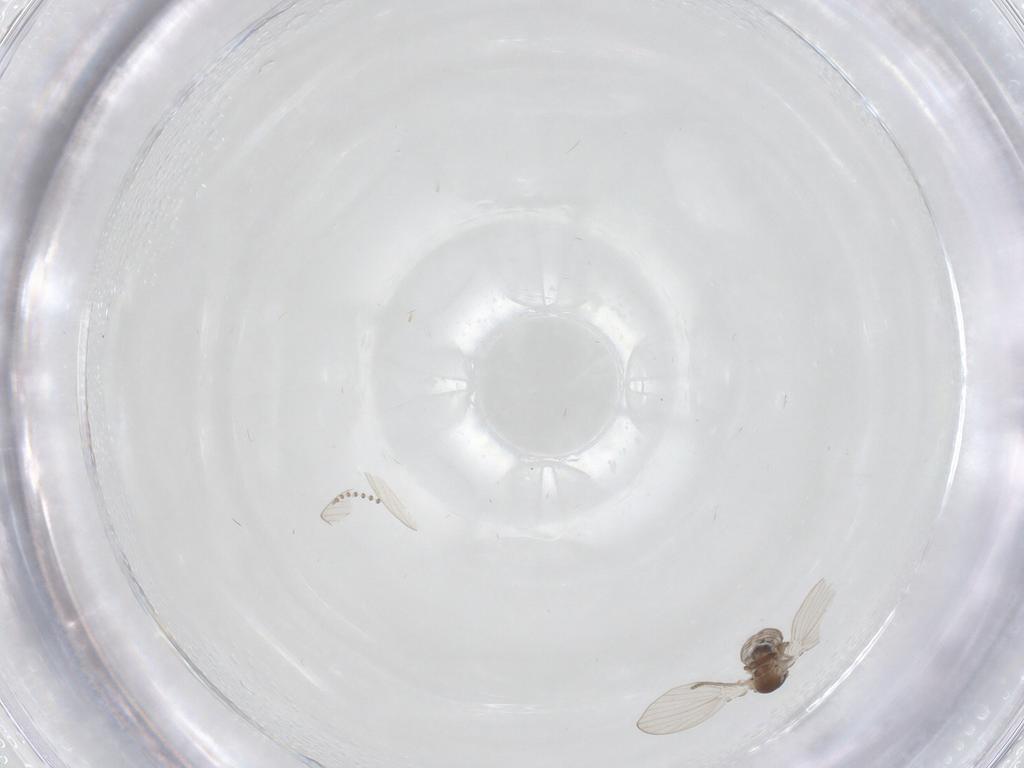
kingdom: Animalia
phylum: Arthropoda
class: Insecta
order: Diptera
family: Psychodidae
